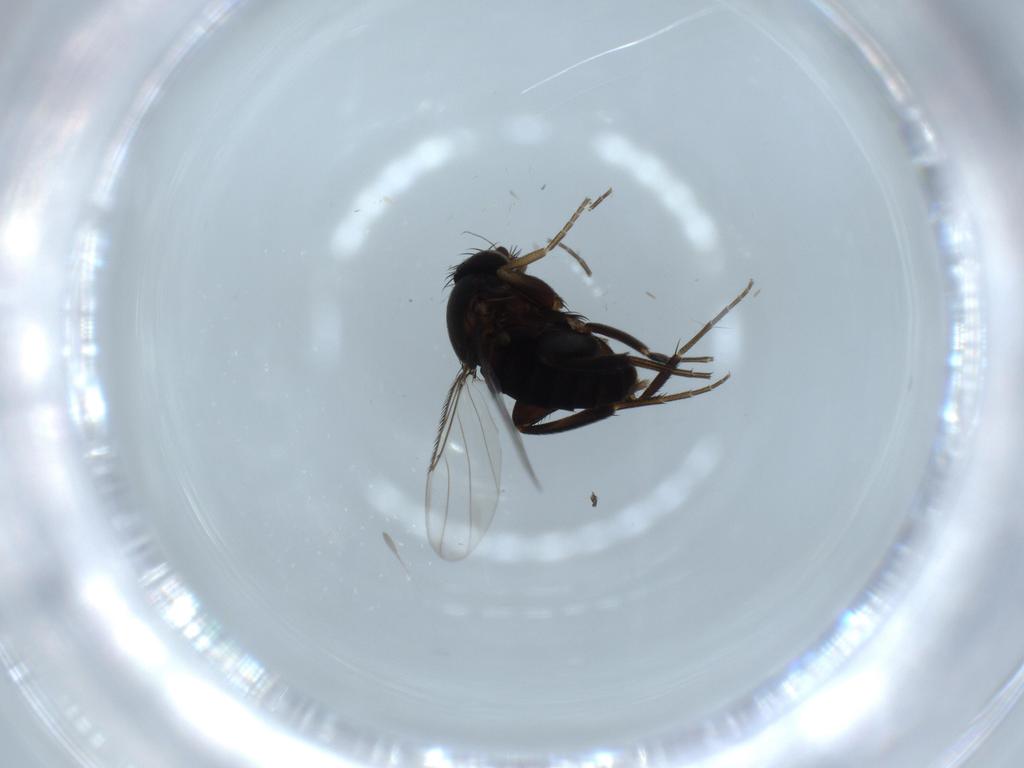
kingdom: Animalia
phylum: Arthropoda
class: Insecta
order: Diptera
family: Phoridae
